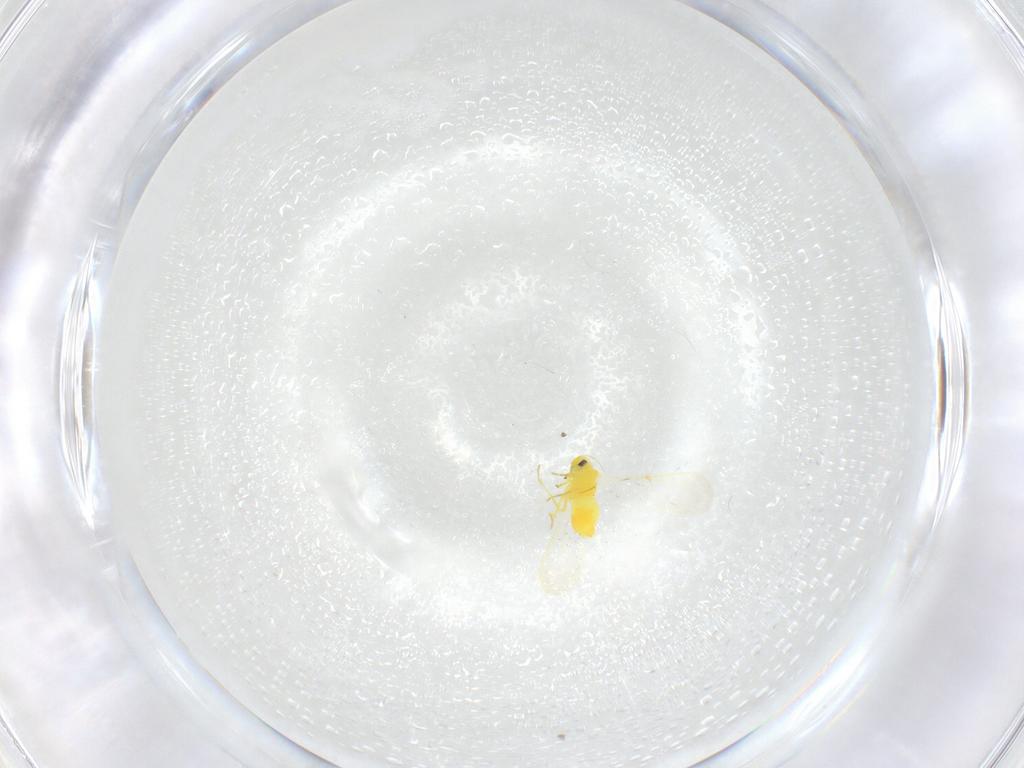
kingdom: Animalia
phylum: Arthropoda
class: Insecta
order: Hemiptera
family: Aleyrodidae
